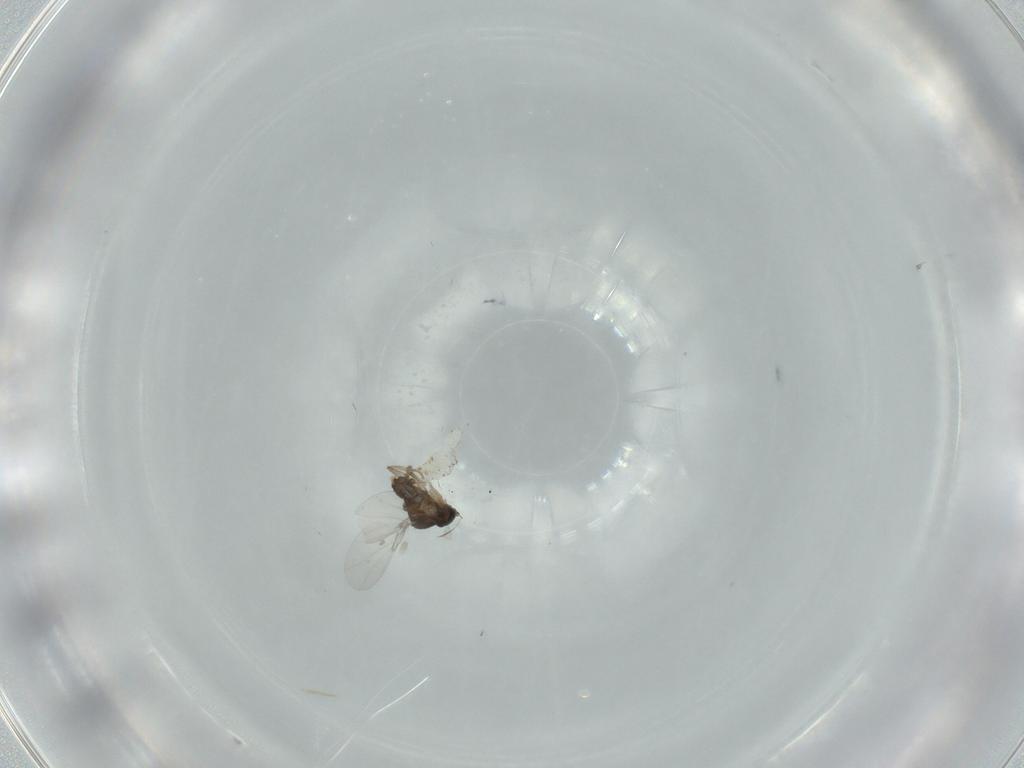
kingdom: Animalia
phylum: Arthropoda
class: Insecta
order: Diptera
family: Chironomidae
